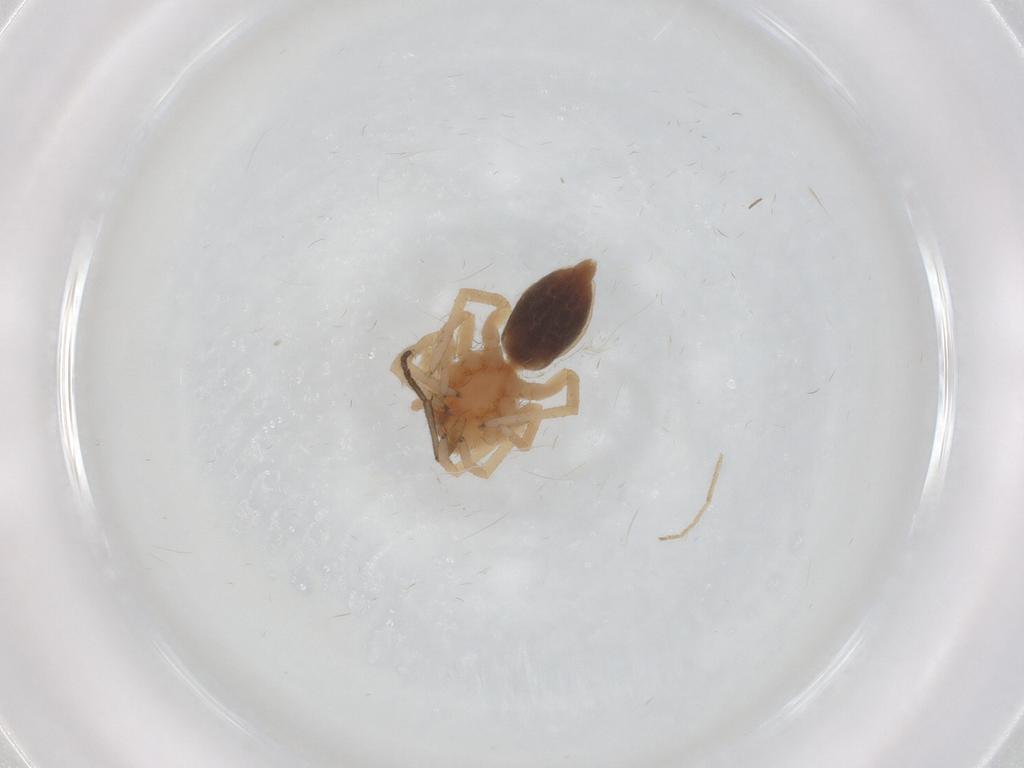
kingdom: Animalia
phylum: Arthropoda
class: Arachnida
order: Araneae
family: Clubionidae
